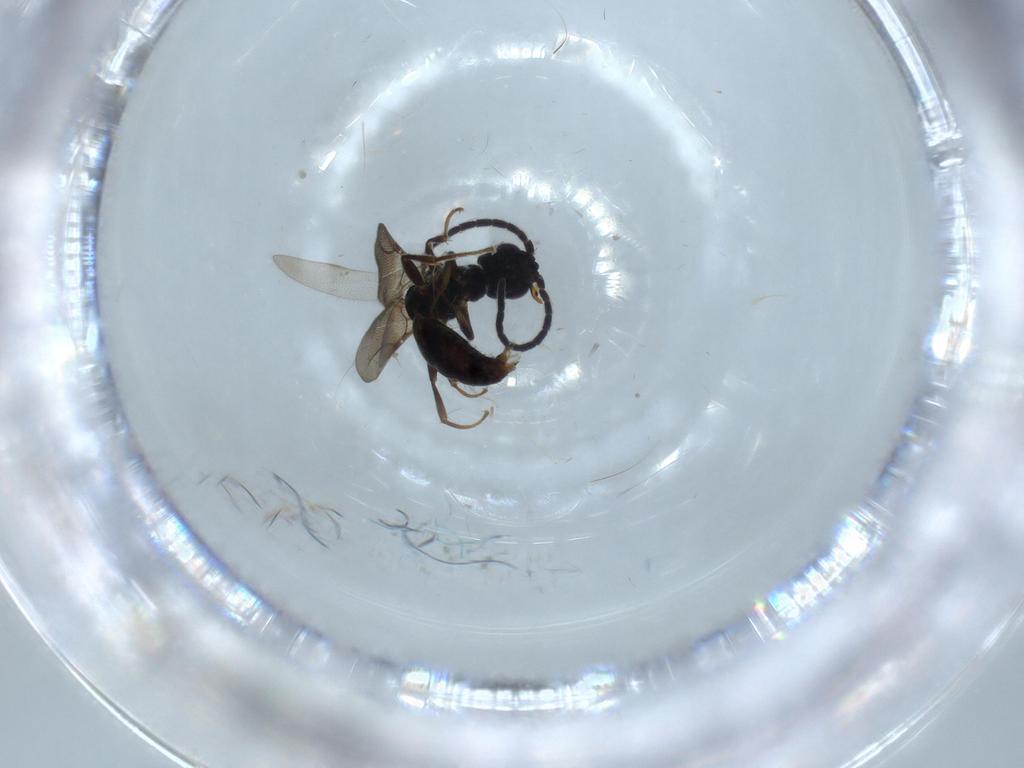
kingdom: Animalia
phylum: Arthropoda
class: Insecta
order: Hymenoptera
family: Bethylidae
